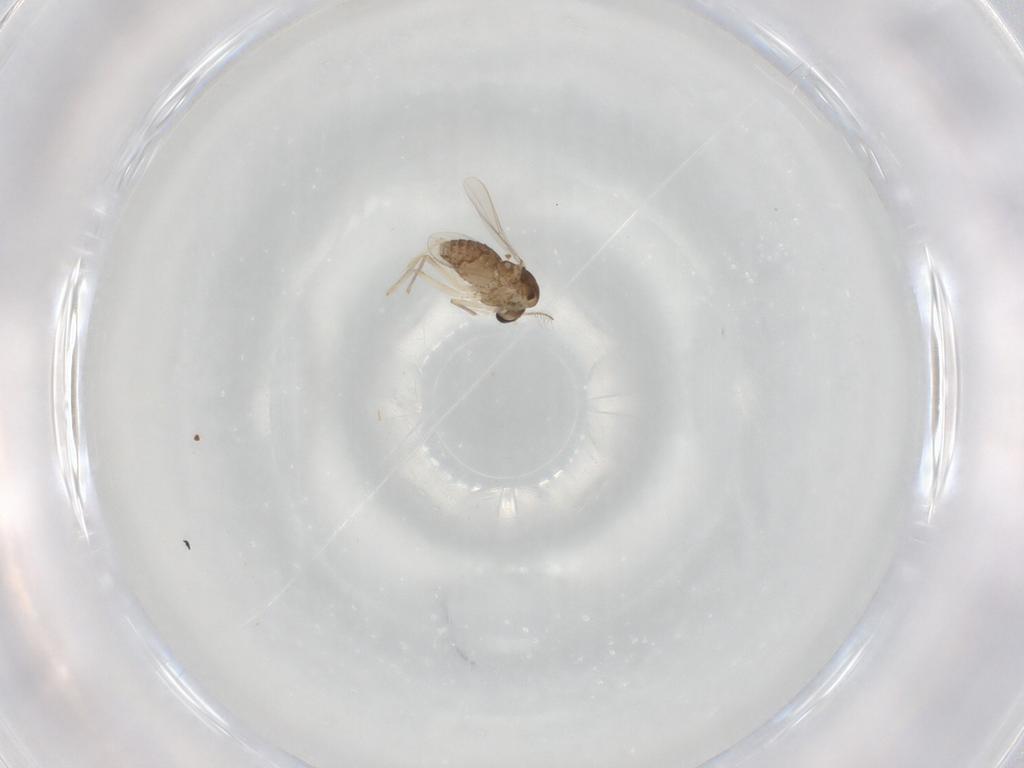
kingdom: Animalia
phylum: Arthropoda
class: Insecta
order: Diptera
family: Chironomidae
